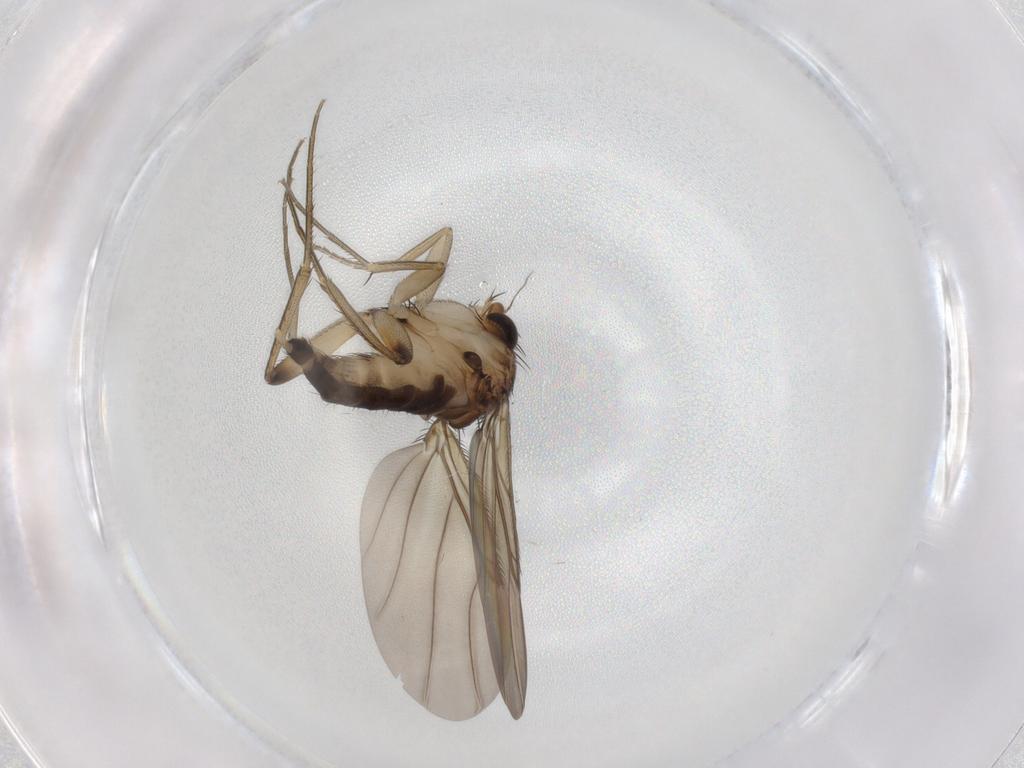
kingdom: Animalia
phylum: Arthropoda
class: Insecta
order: Diptera
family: Phoridae
